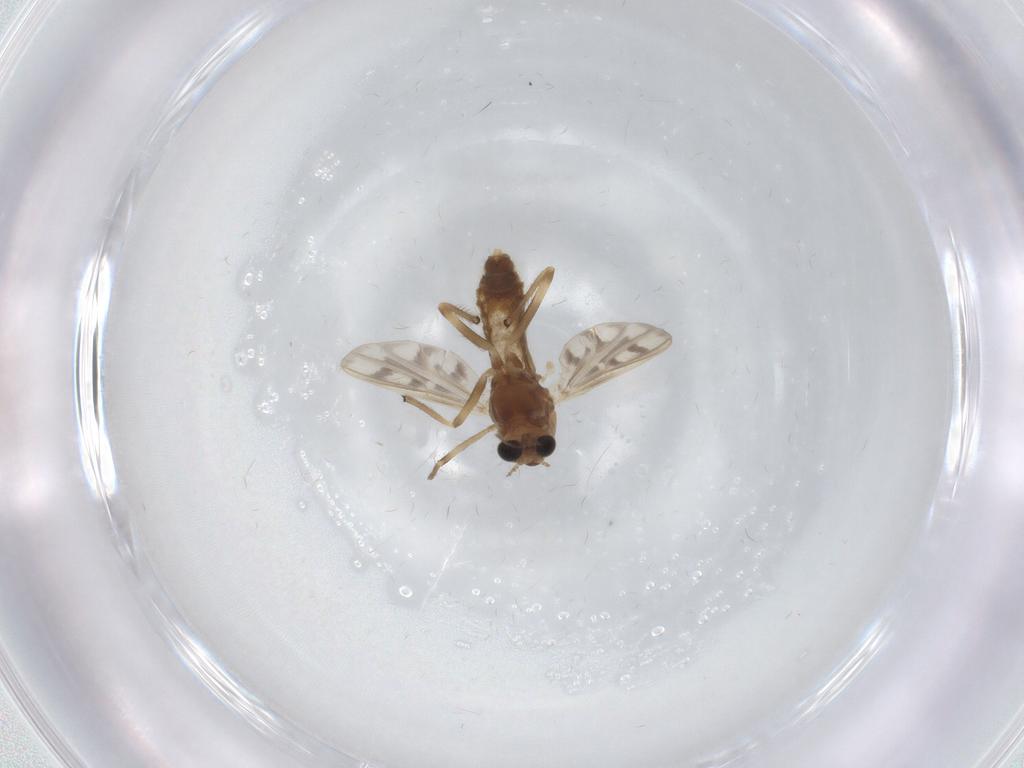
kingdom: Animalia
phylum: Arthropoda
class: Insecta
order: Diptera
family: Chironomidae
